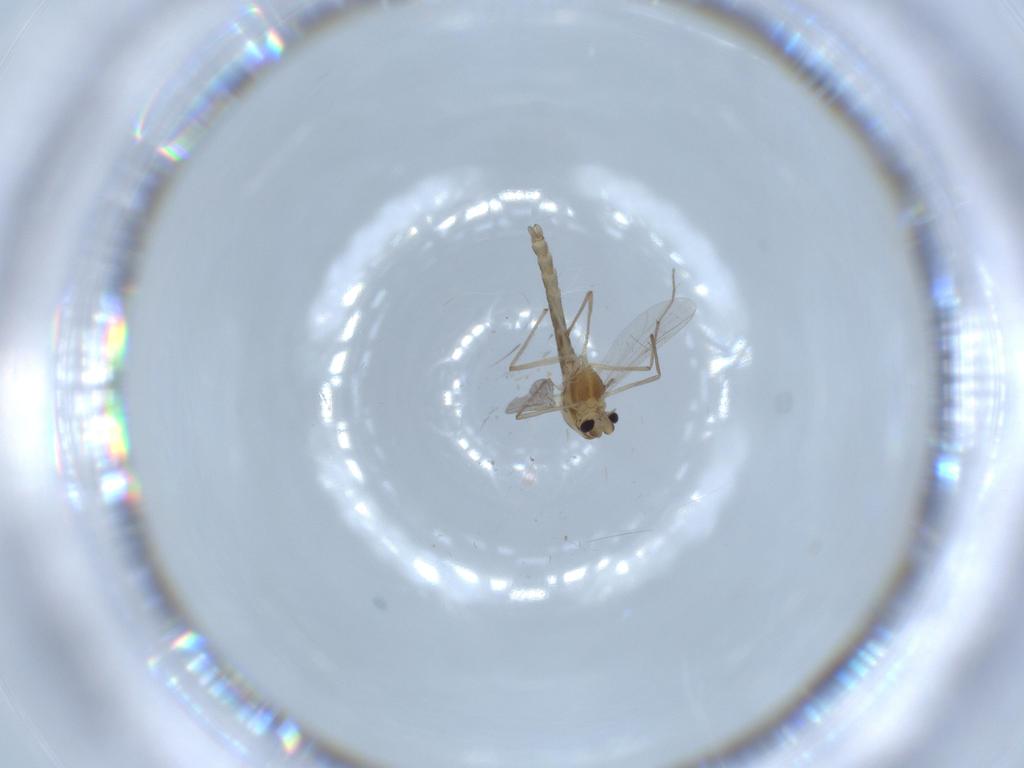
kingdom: Animalia
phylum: Arthropoda
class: Insecta
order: Diptera
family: Chironomidae
